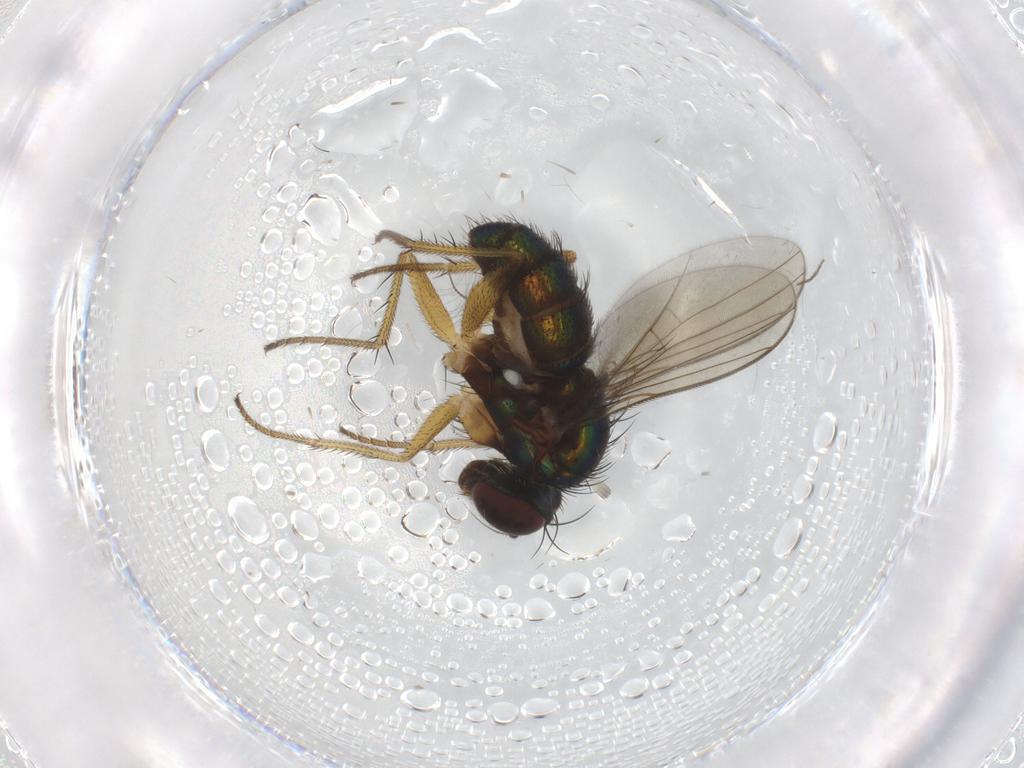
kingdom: Animalia
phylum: Arthropoda
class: Insecta
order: Diptera
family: Dolichopodidae
